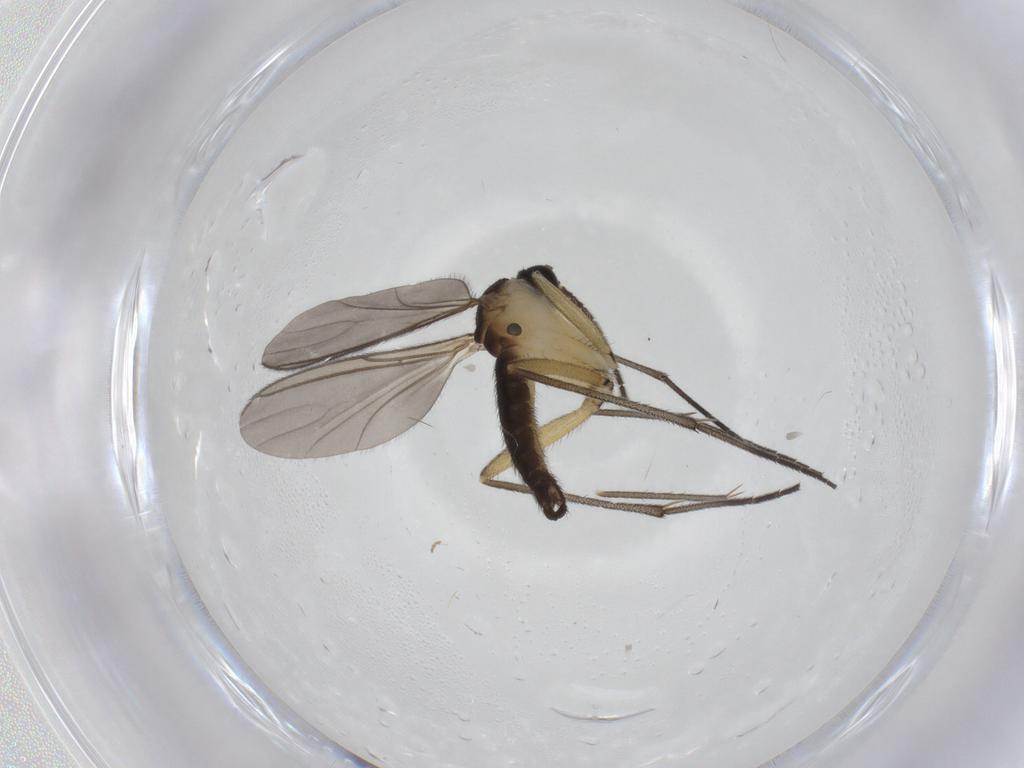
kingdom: Animalia
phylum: Arthropoda
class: Insecta
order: Diptera
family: Sciaridae
